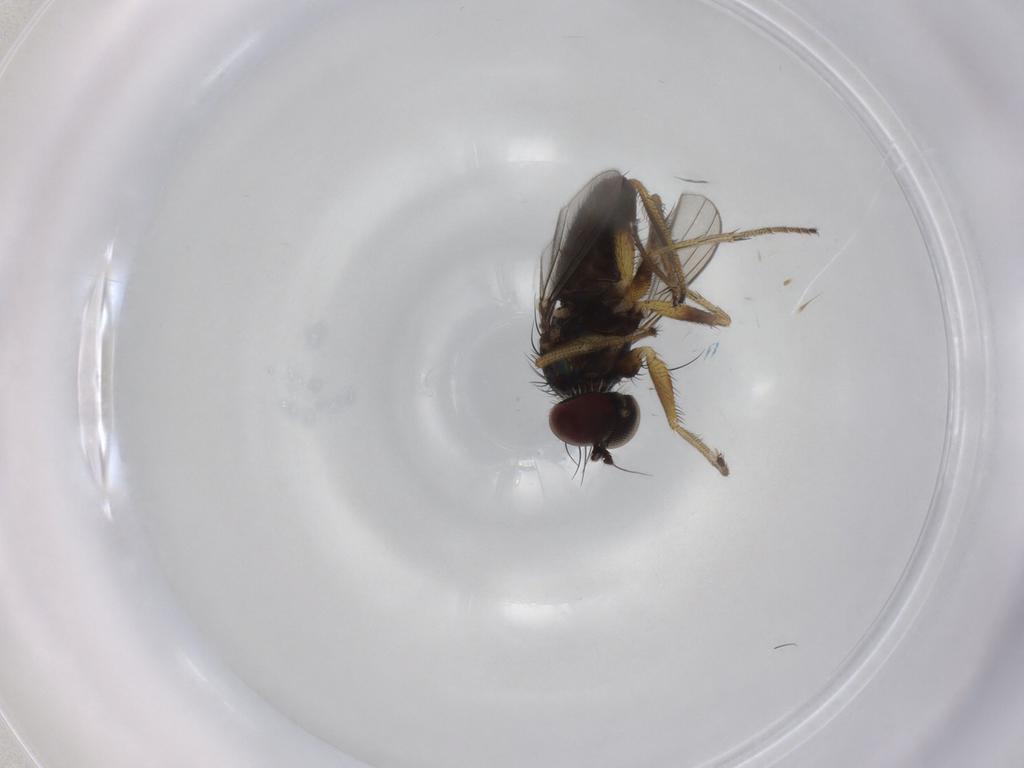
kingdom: Animalia
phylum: Arthropoda
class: Insecta
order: Diptera
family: Dolichopodidae
